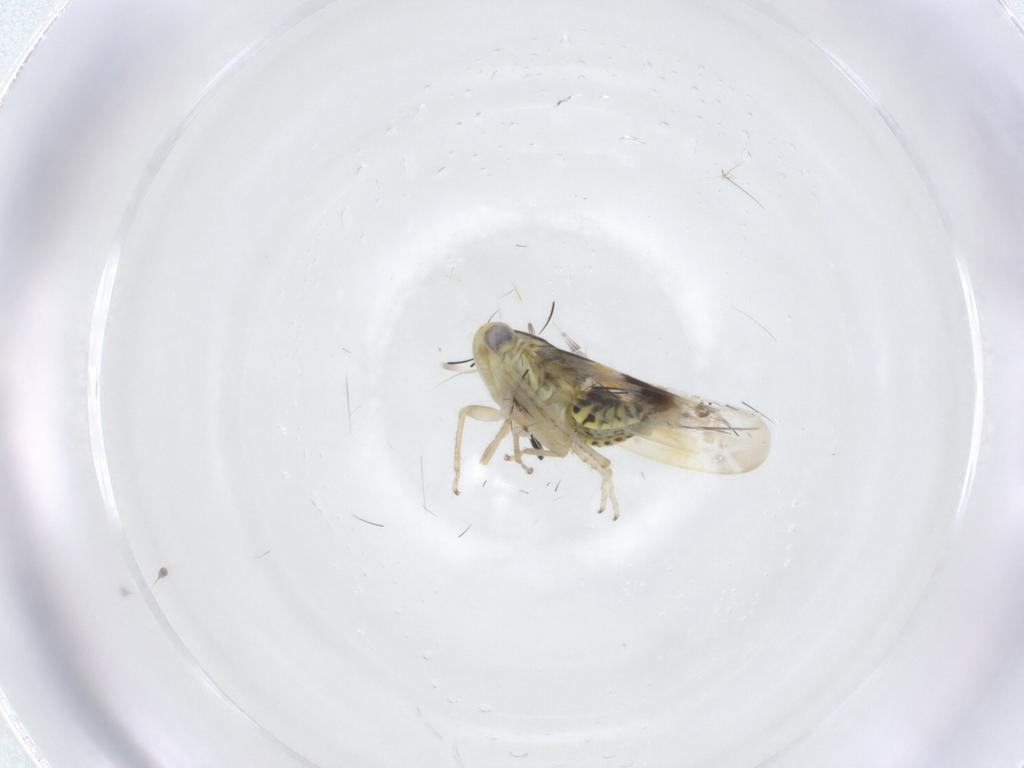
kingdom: Animalia
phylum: Arthropoda
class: Insecta
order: Hemiptera
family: Cicadellidae
